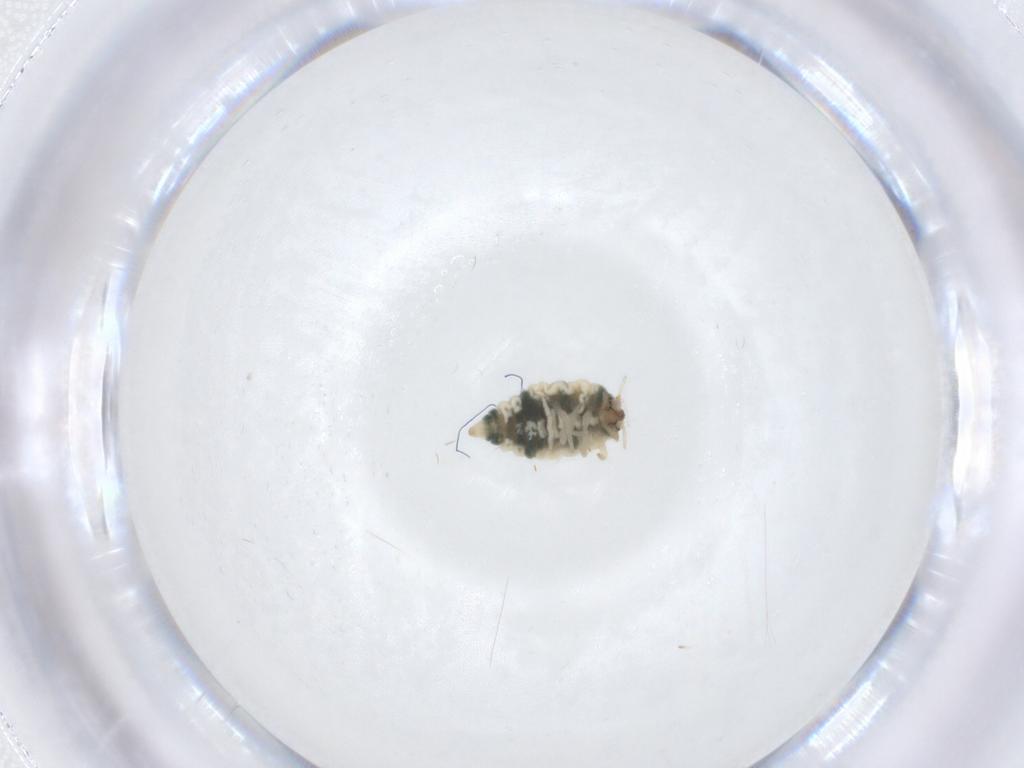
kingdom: Animalia
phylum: Arthropoda
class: Insecta
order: Neuroptera
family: Coniopterygidae
